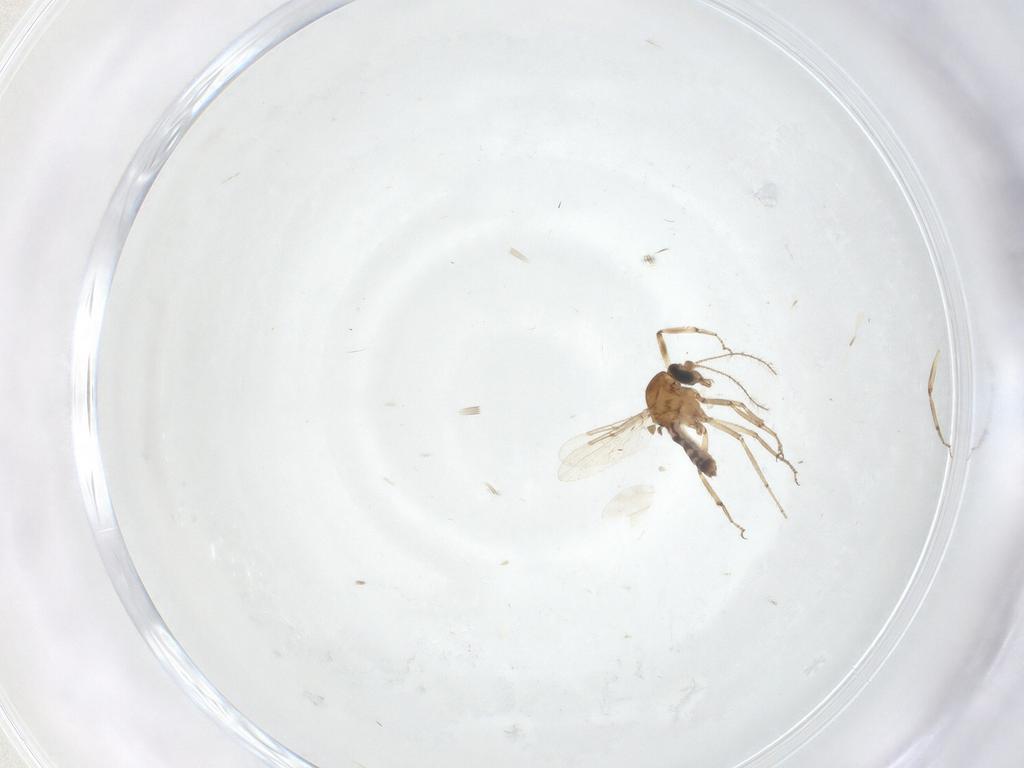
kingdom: Animalia
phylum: Arthropoda
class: Insecta
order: Diptera
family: Ceratopogonidae
